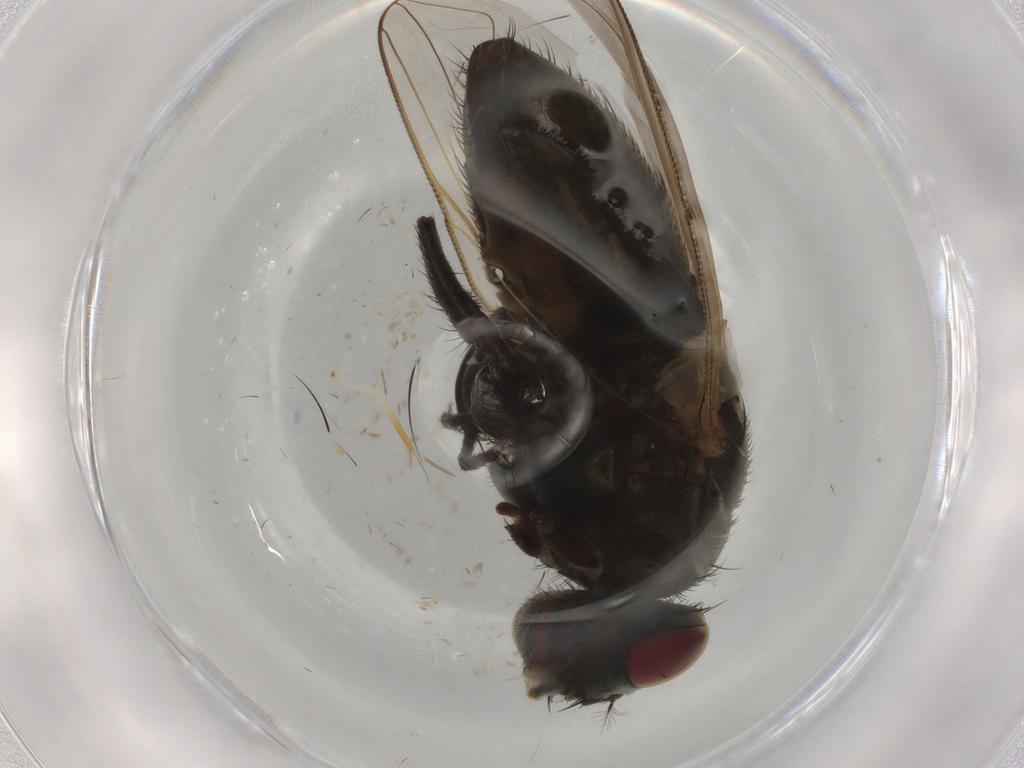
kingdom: Animalia
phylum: Arthropoda
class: Insecta
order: Diptera
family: Muscidae
